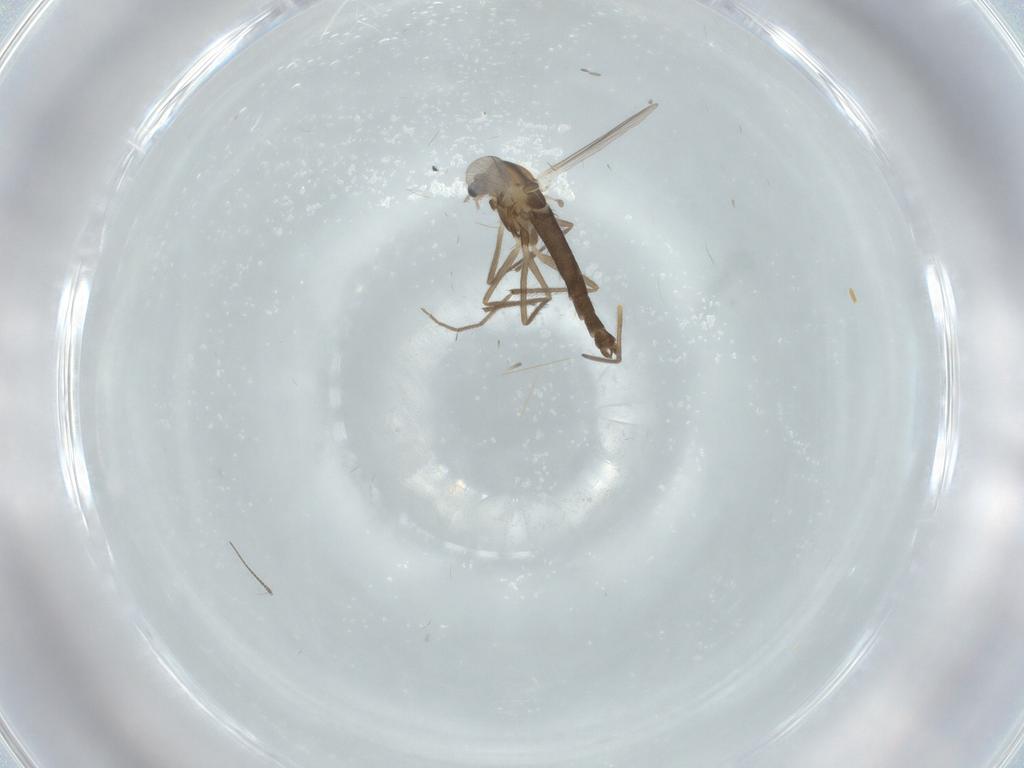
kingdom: Animalia
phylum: Arthropoda
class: Insecta
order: Diptera
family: Chironomidae
